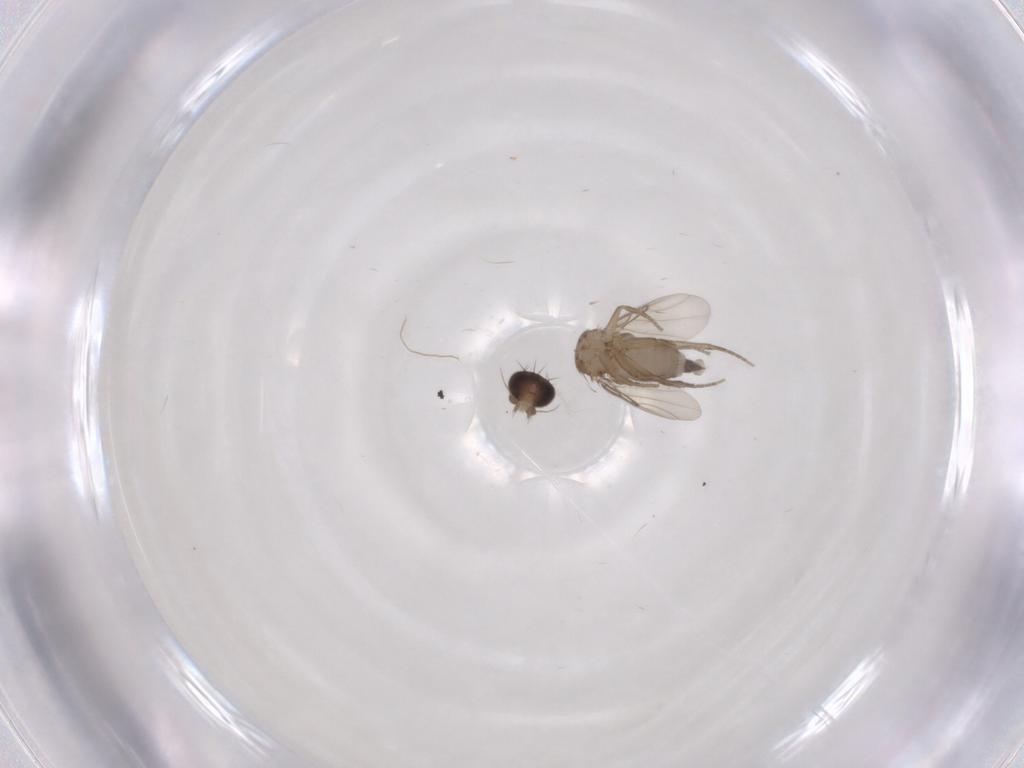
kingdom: Animalia
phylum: Arthropoda
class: Insecta
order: Diptera
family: Phoridae
